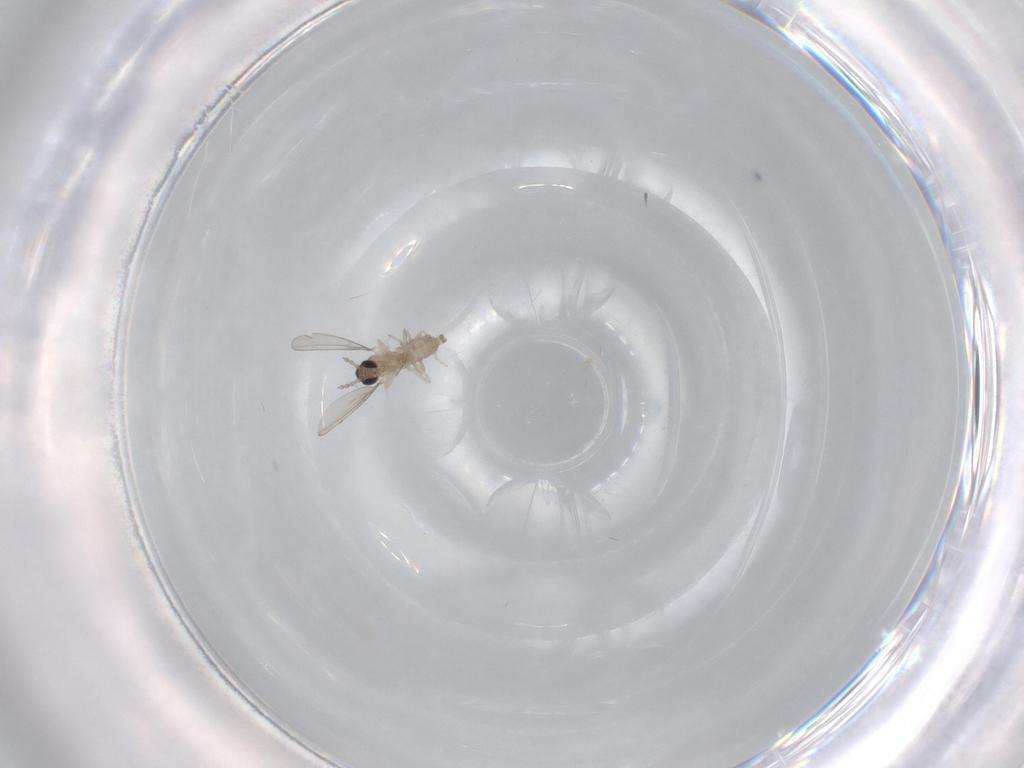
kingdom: Animalia
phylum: Arthropoda
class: Insecta
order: Diptera
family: Cecidomyiidae
